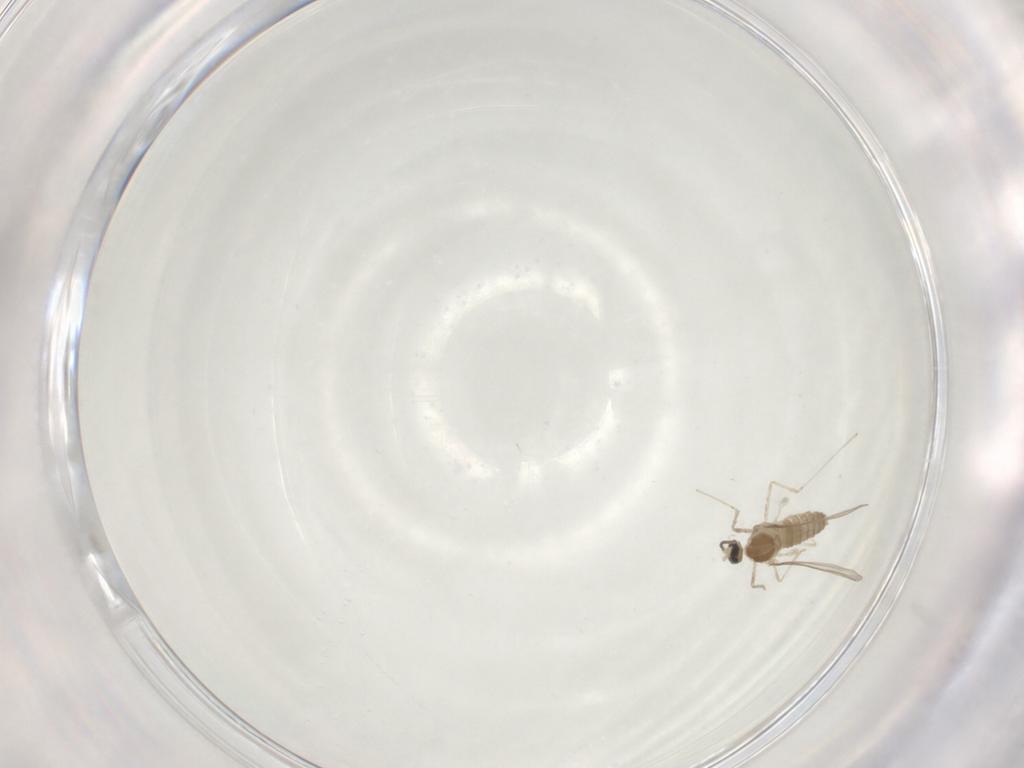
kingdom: Animalia
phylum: Arthropoda
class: Insecta
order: Diptera
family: Cecidomyiidae
